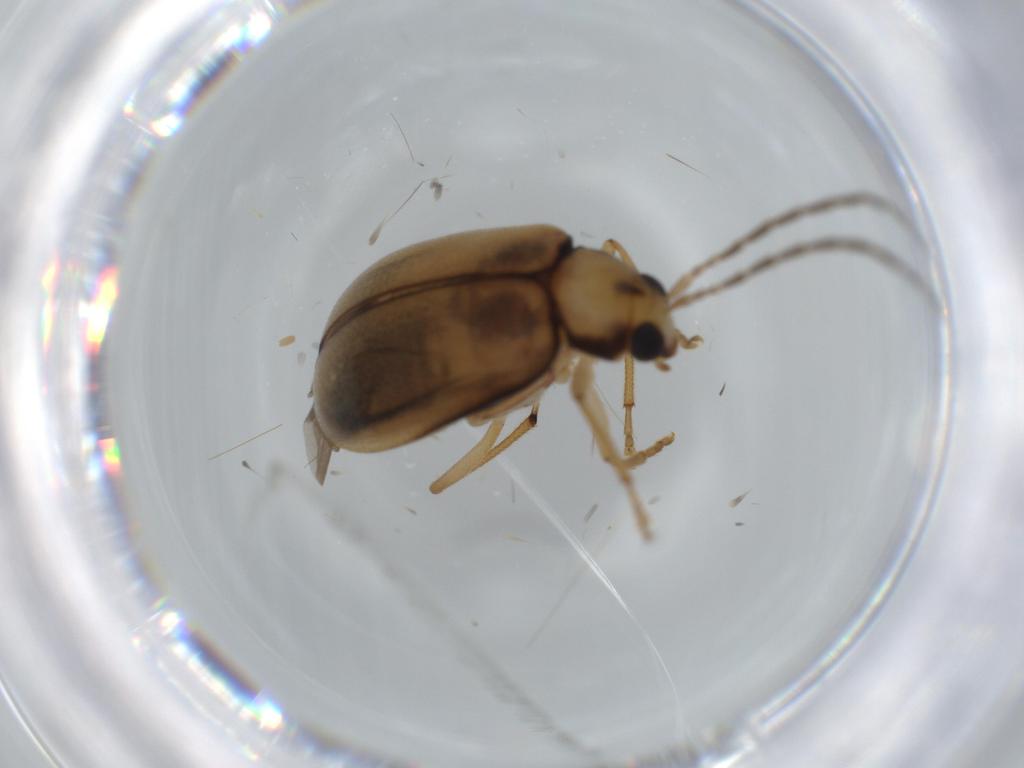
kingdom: Animalia
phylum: Arthropoda
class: Insecta
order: Coleoptera
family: Chrysomelidae
